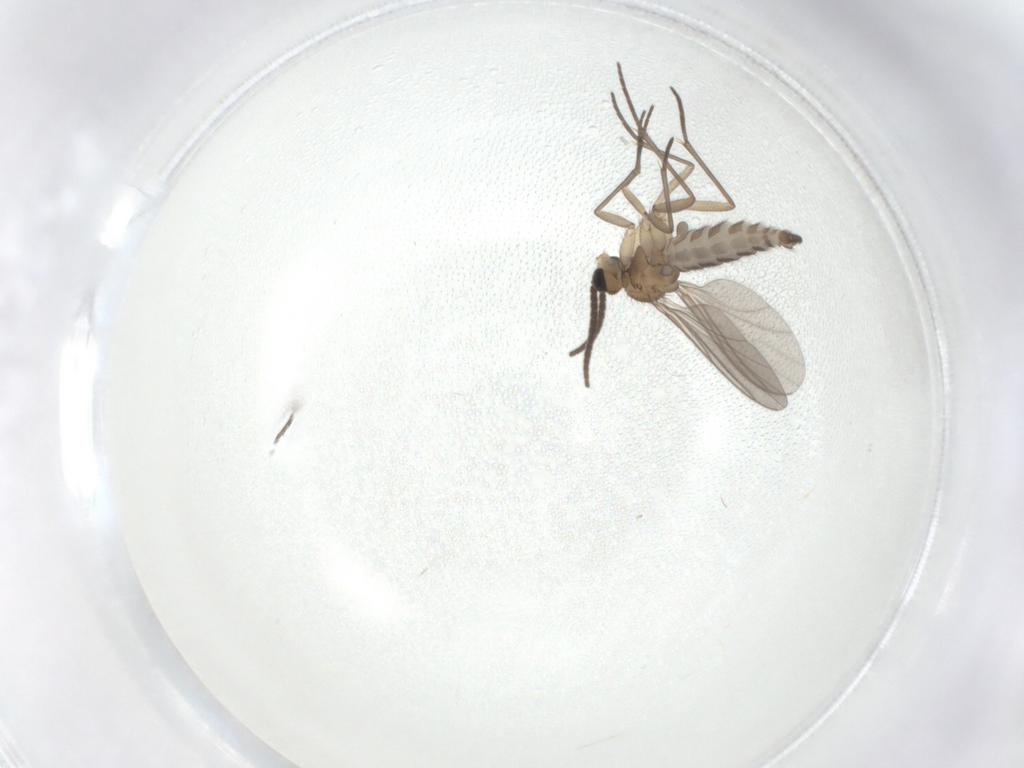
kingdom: Animalia
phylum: Arthropoda
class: Insecta
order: Diptera
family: Sciaridae
